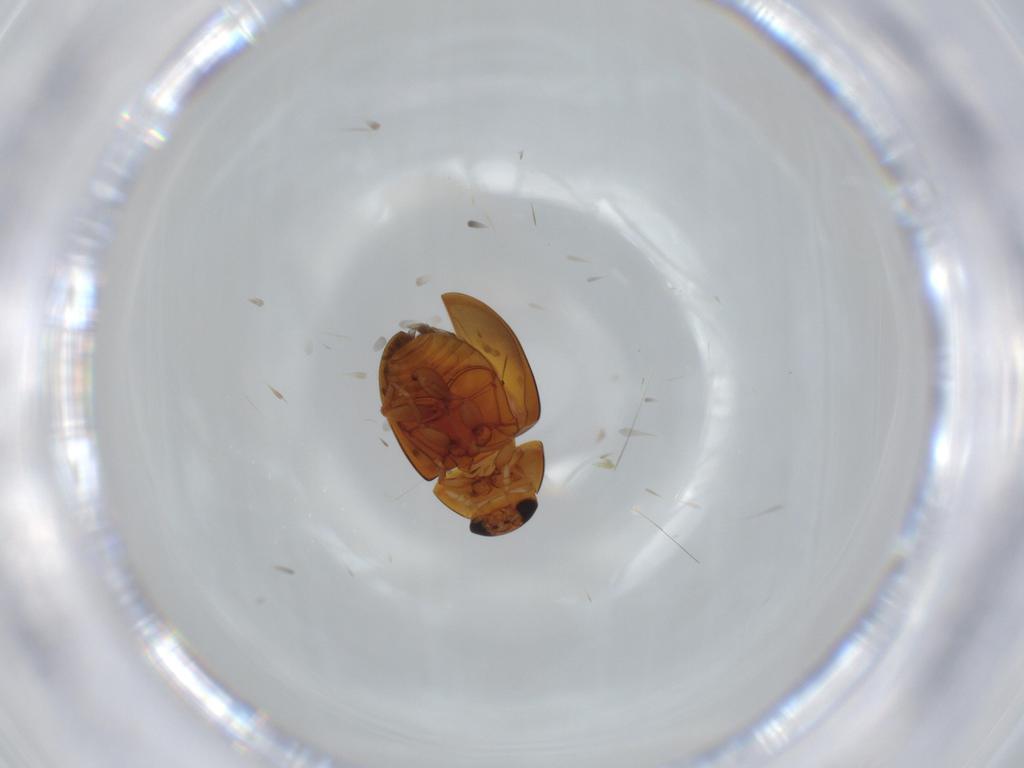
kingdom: Animalia
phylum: Arthropoda
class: Insecta
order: Coleoptera
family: Phalacridae
